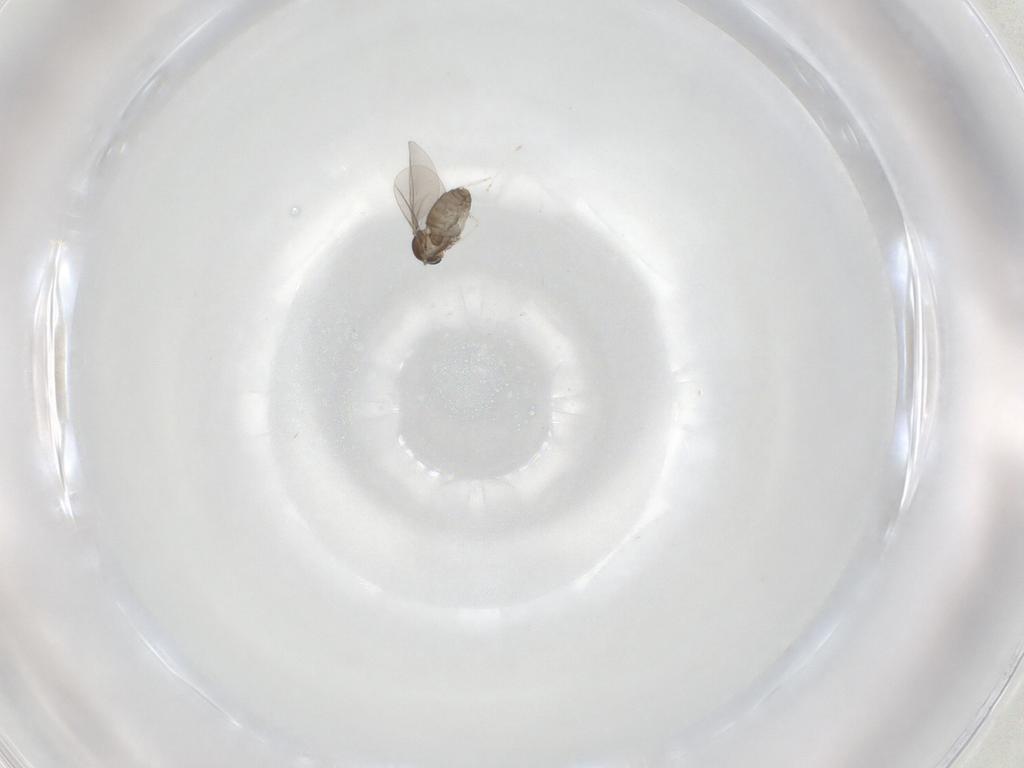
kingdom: Animalia
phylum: Arthropoda
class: Insecta
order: Diptera
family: Cecidomyiidae
